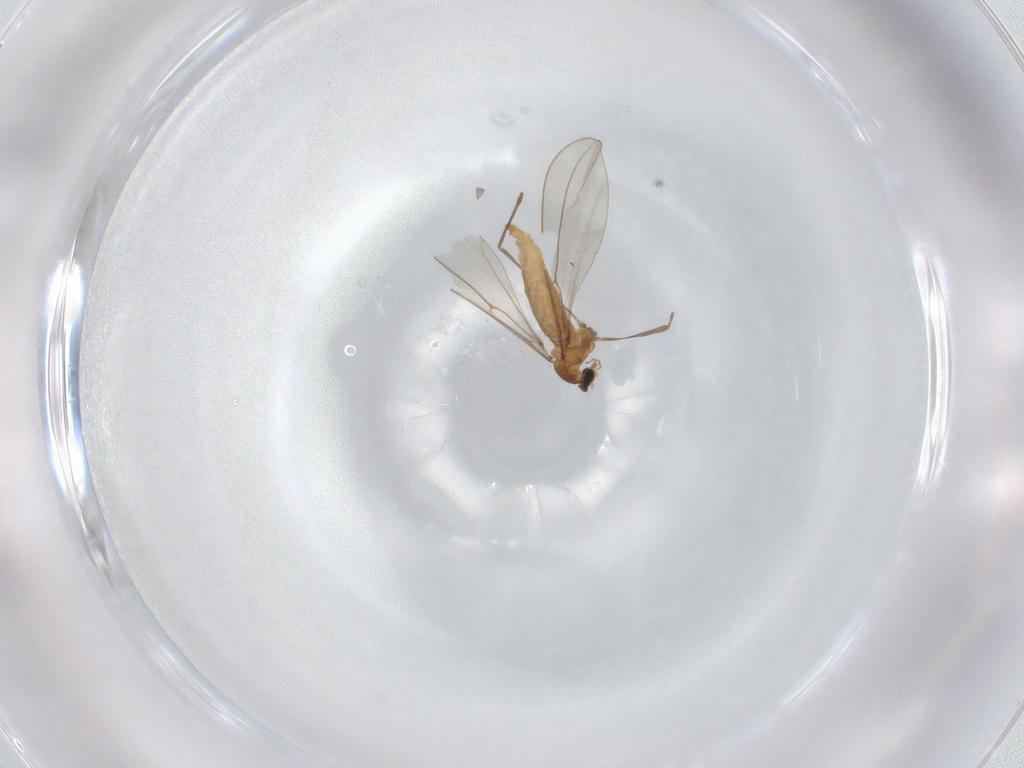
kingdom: Animalia
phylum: Arthropoda
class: Insecta
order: Diptera
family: Cecidomyiidae
